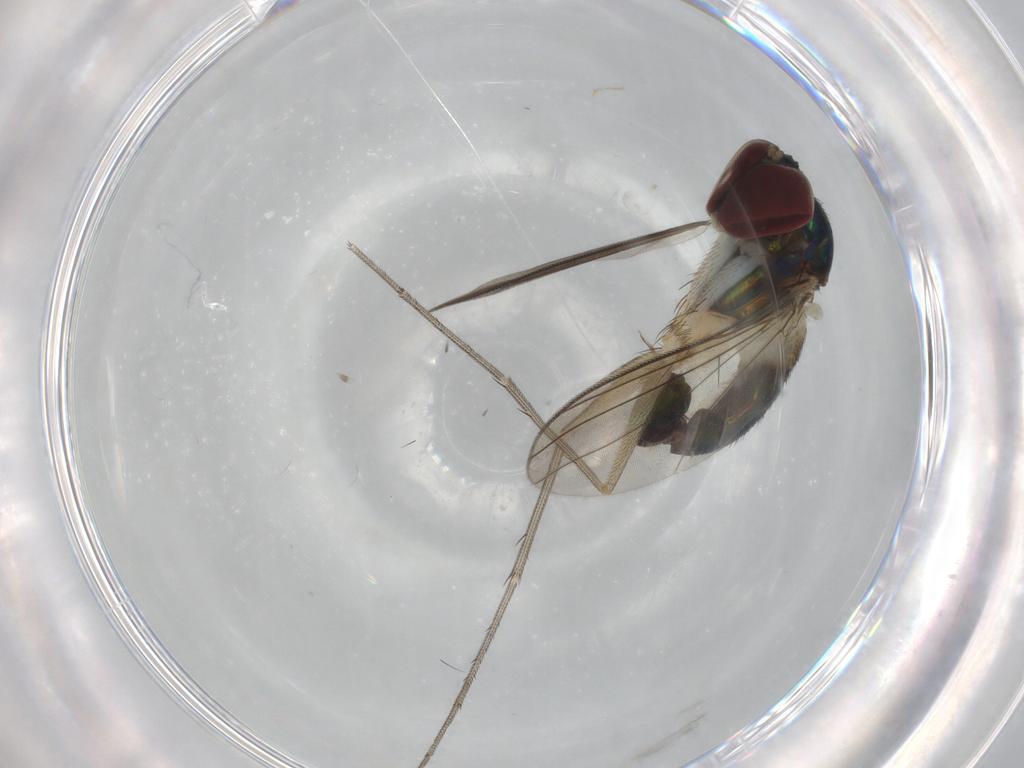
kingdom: Animalia
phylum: Arthropoda
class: Insecta
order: Diptera
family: Dolichopodidae
